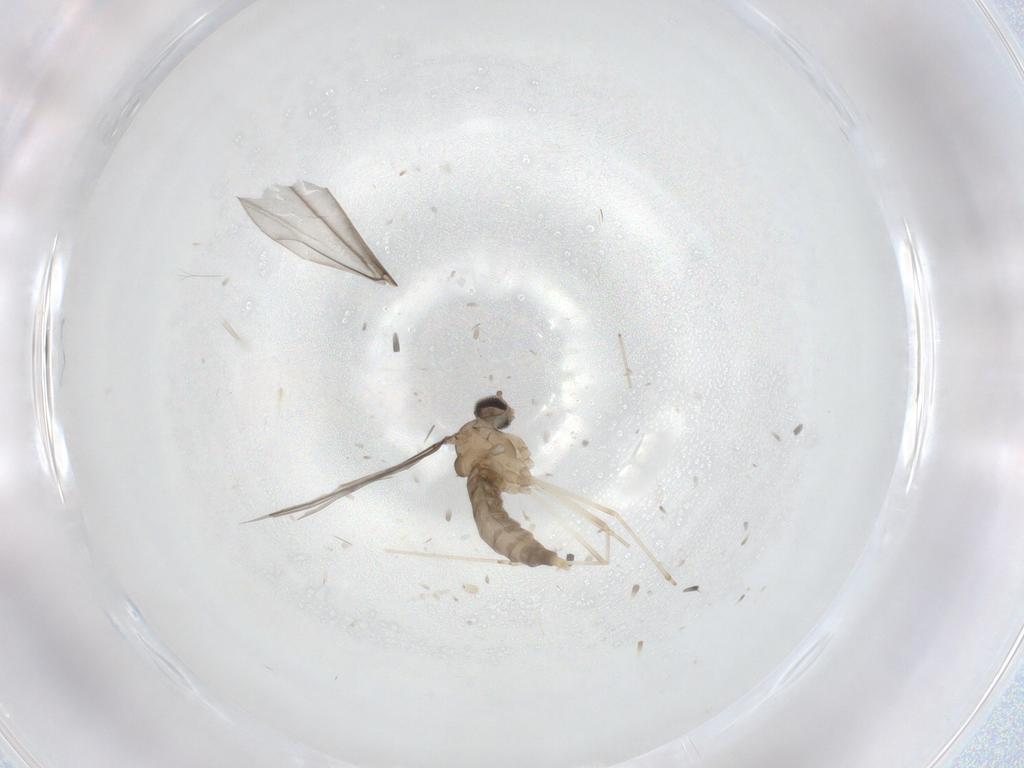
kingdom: Animalia
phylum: Arthropoda
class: Insecta
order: Diptera
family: Cecidomyiidae
